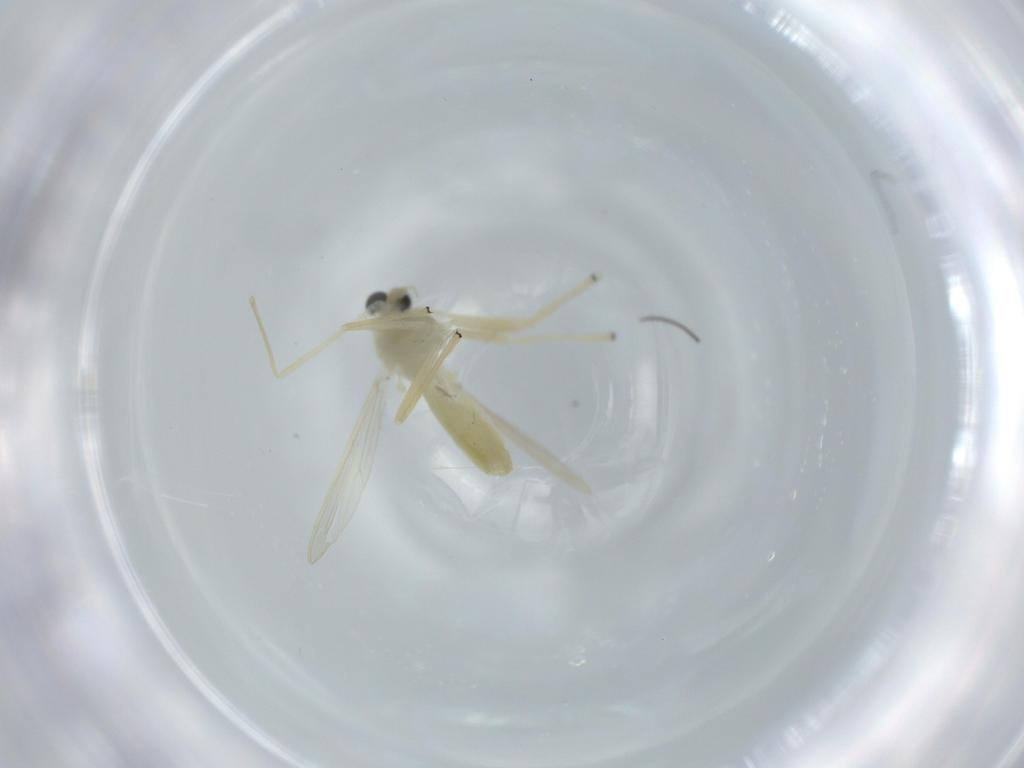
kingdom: Animalia
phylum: Arthropoda
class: Insecta
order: Diptera
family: Chironomidae
